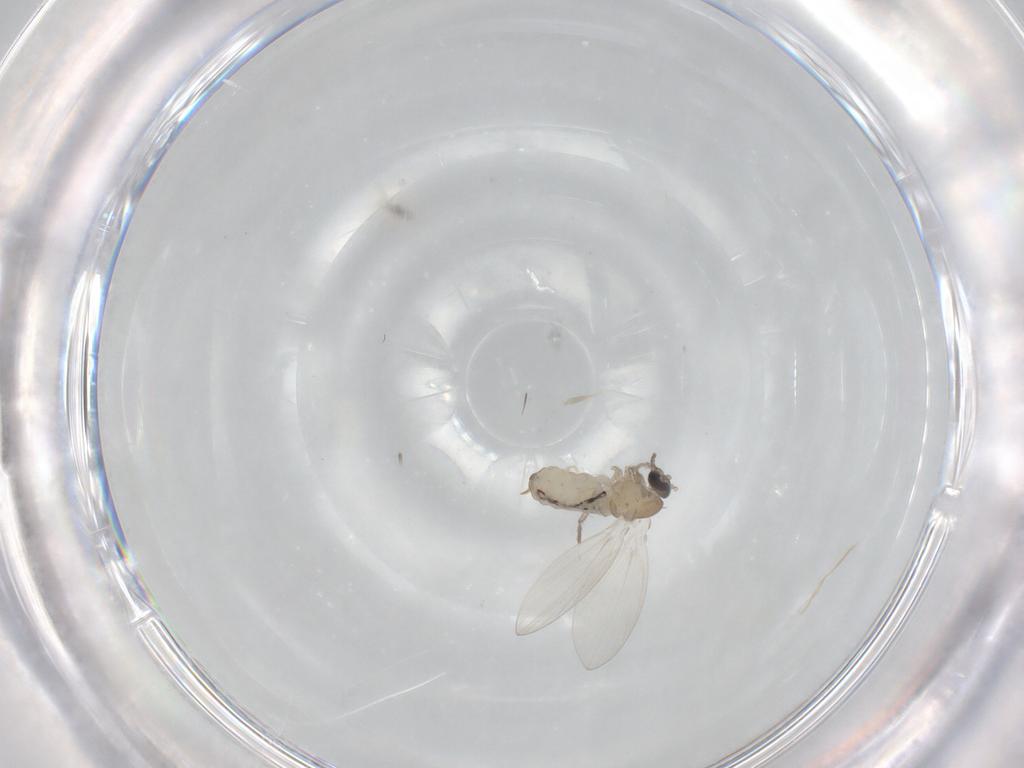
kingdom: Animalia
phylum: Arthropoda
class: Insecta
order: Diptera
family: Psychodidae
